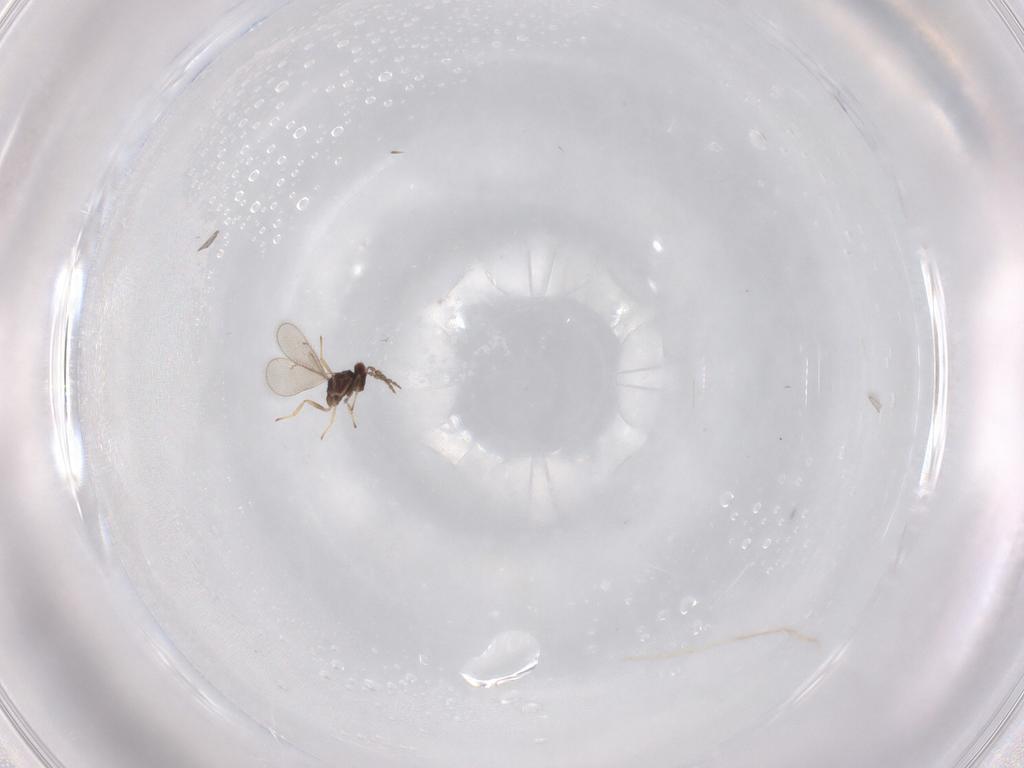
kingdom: Animalia
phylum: Arthropoda
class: Insecta
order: Hymenoptera
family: Eulophidae
